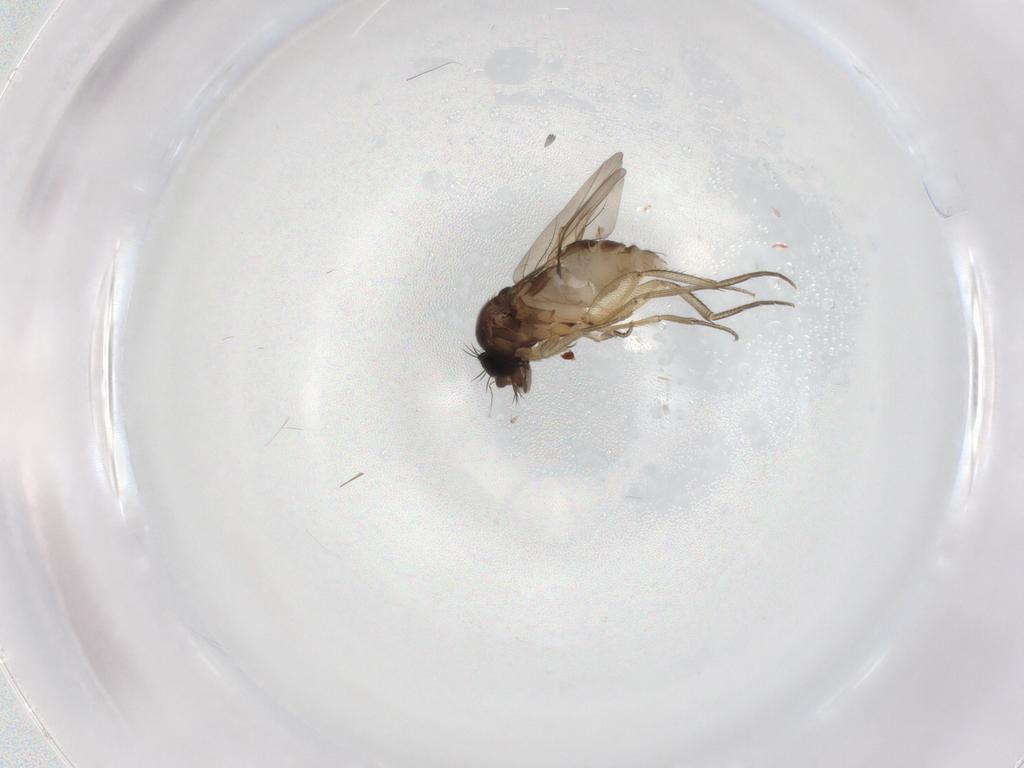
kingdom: Animalia
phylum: Arthropoda
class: Insecta
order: Diptera
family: Phoridae
